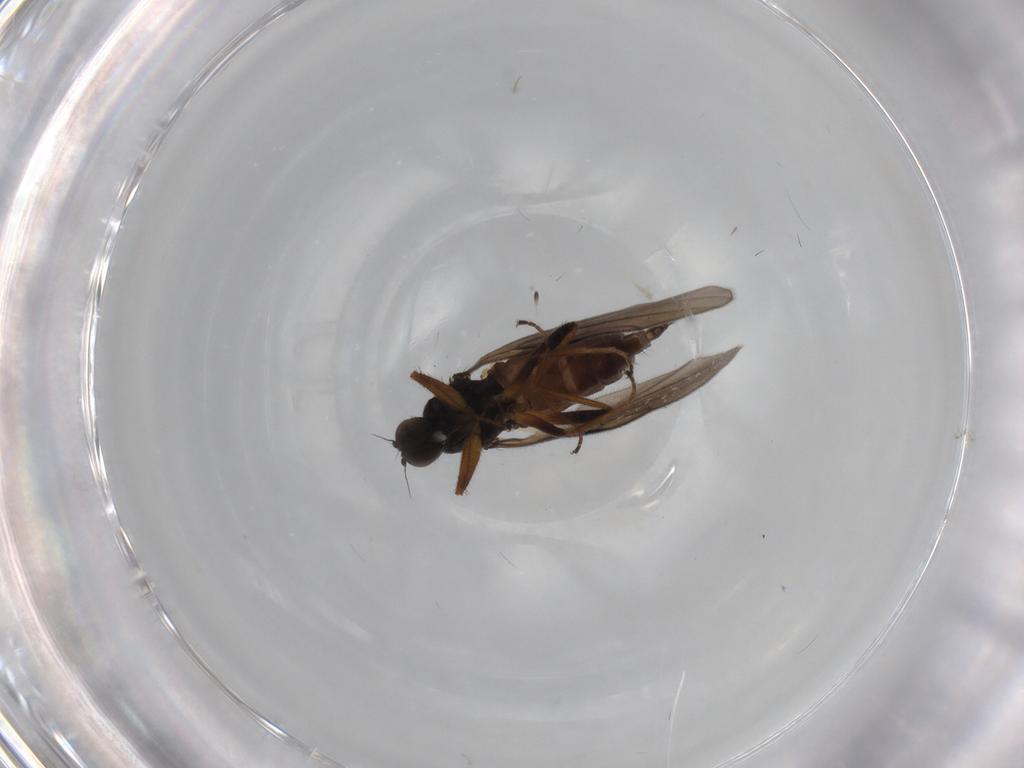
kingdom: Animalia
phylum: Arthropoda
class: Insecta
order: Diptera
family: Hybotidae
